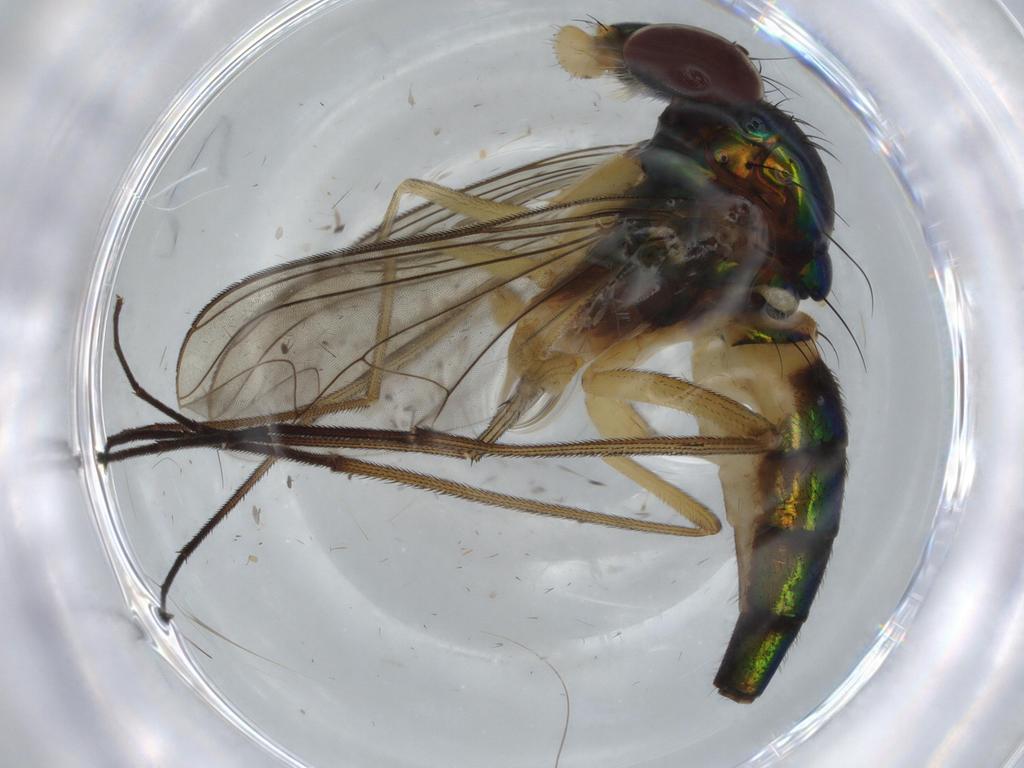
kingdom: Animalia
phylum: Arthropoda
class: Insecta
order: Diptera
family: Dolichopodidae
